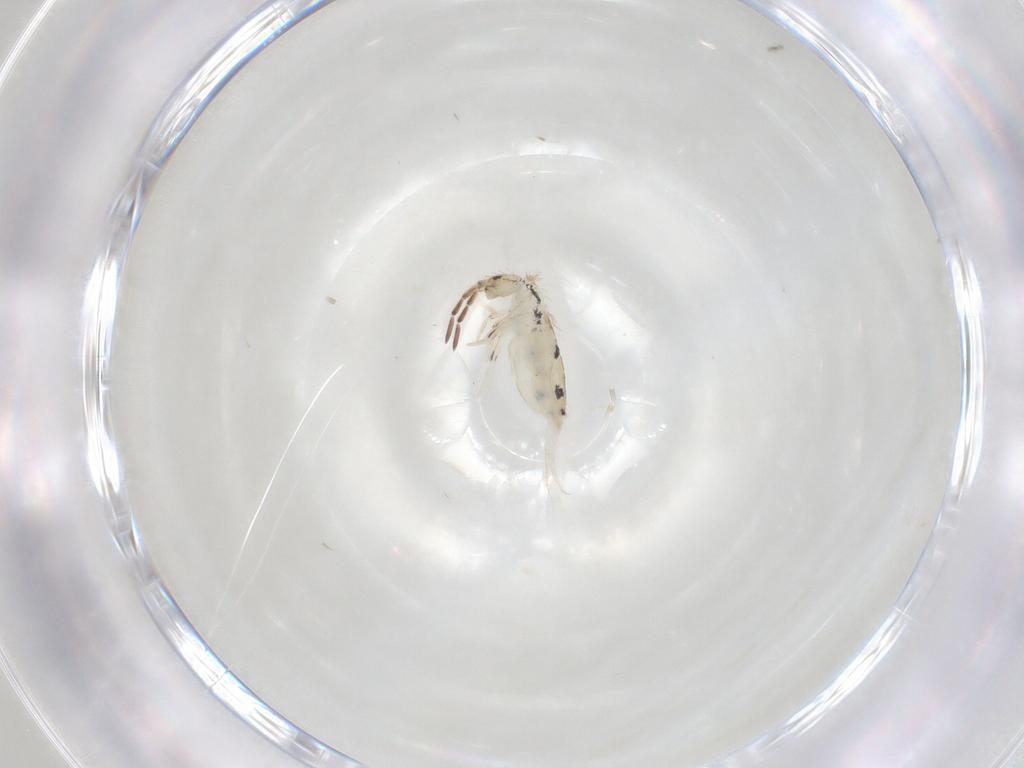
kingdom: Animalia
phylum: Arthropoda
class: Collembola
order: Entomobryomorpha
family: Entomobryidae
